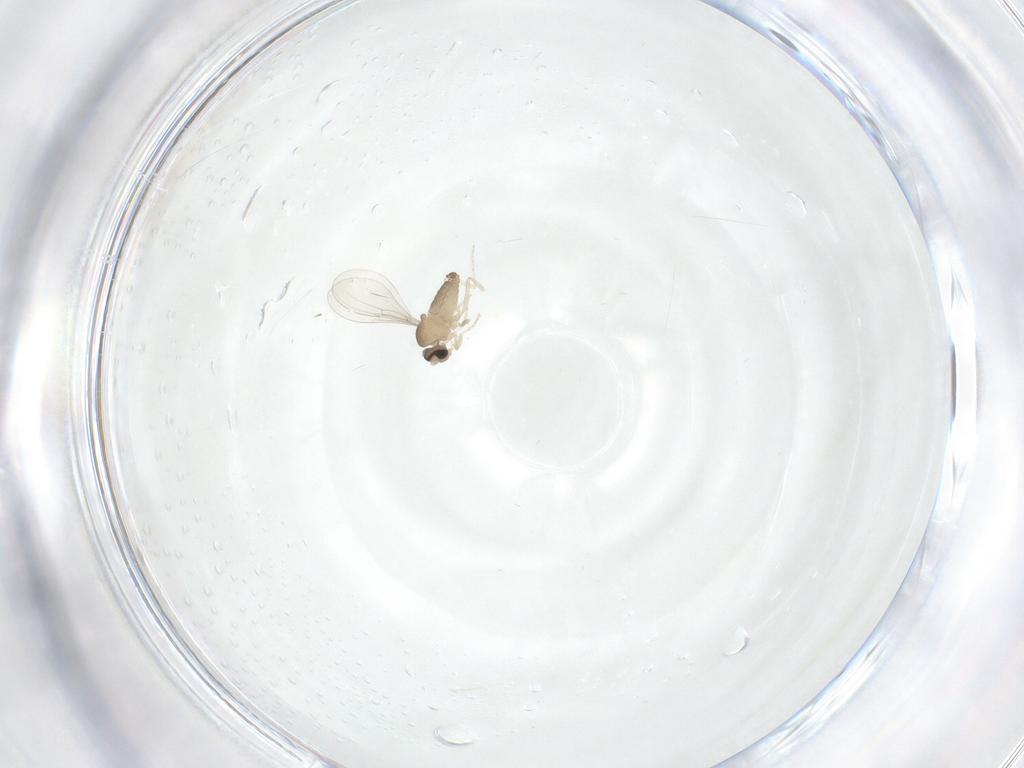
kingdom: Animalia
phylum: Arthropoda
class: Insecta
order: Diptera
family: Cecidomyiidae
